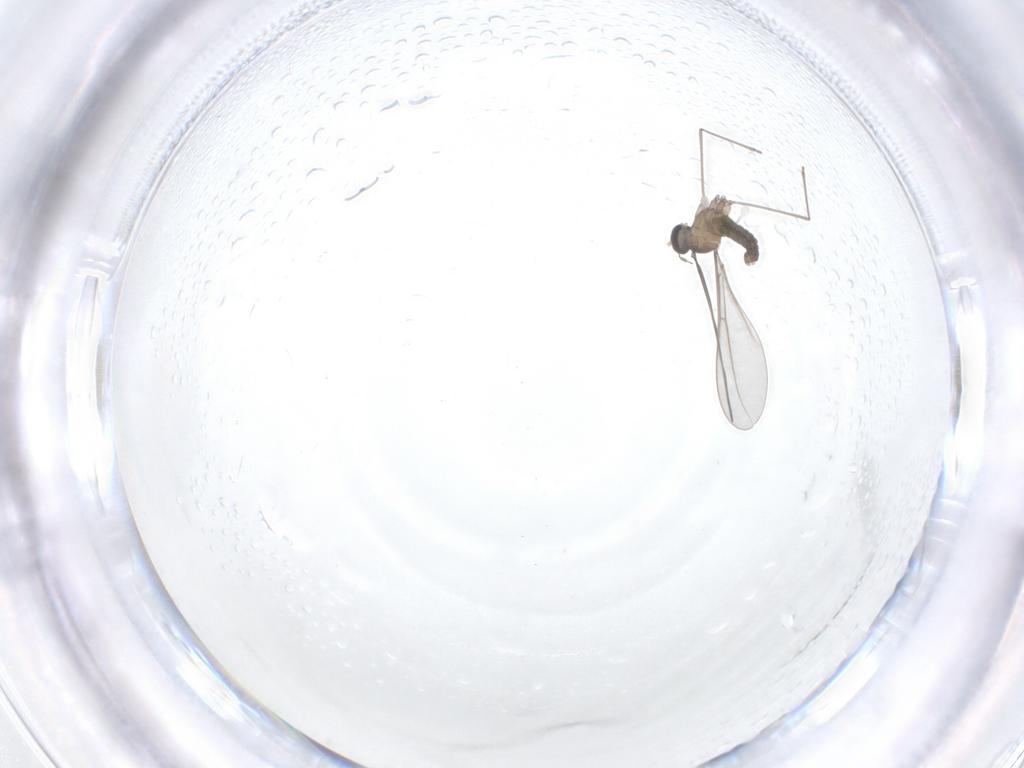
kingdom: Animalia
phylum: Arthropoda
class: Insecta
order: Diptera
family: Cecidomyiidae
